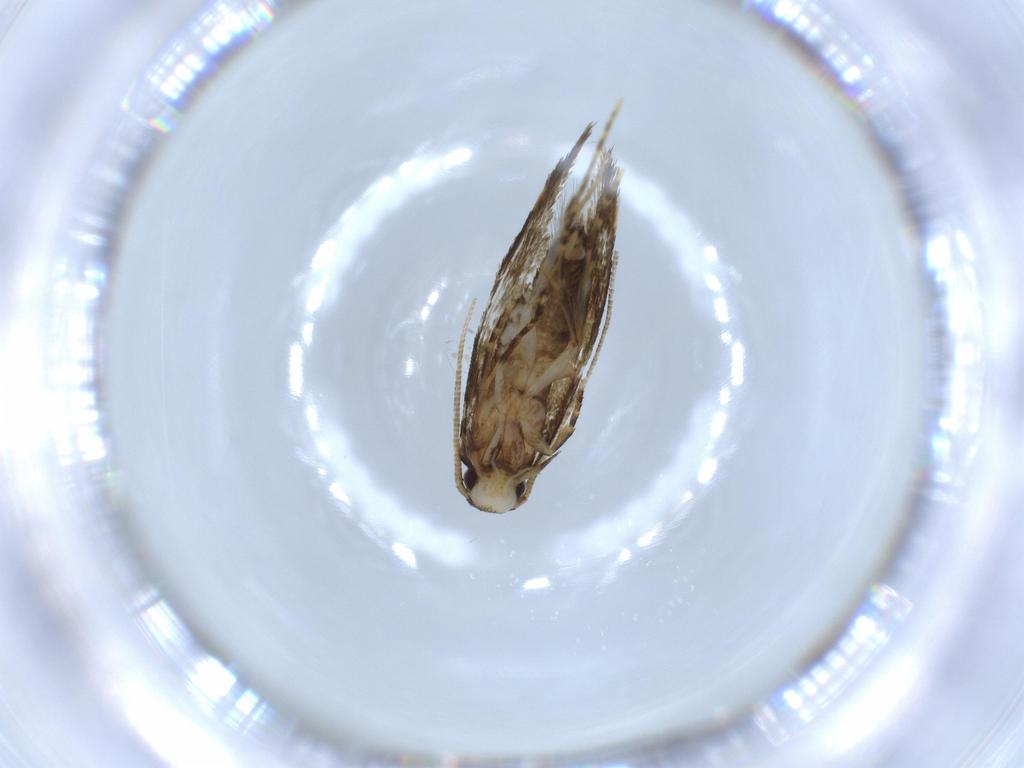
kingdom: Animalia
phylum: Arthropoda
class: Insecta
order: Lepidoptera
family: Tineidae
